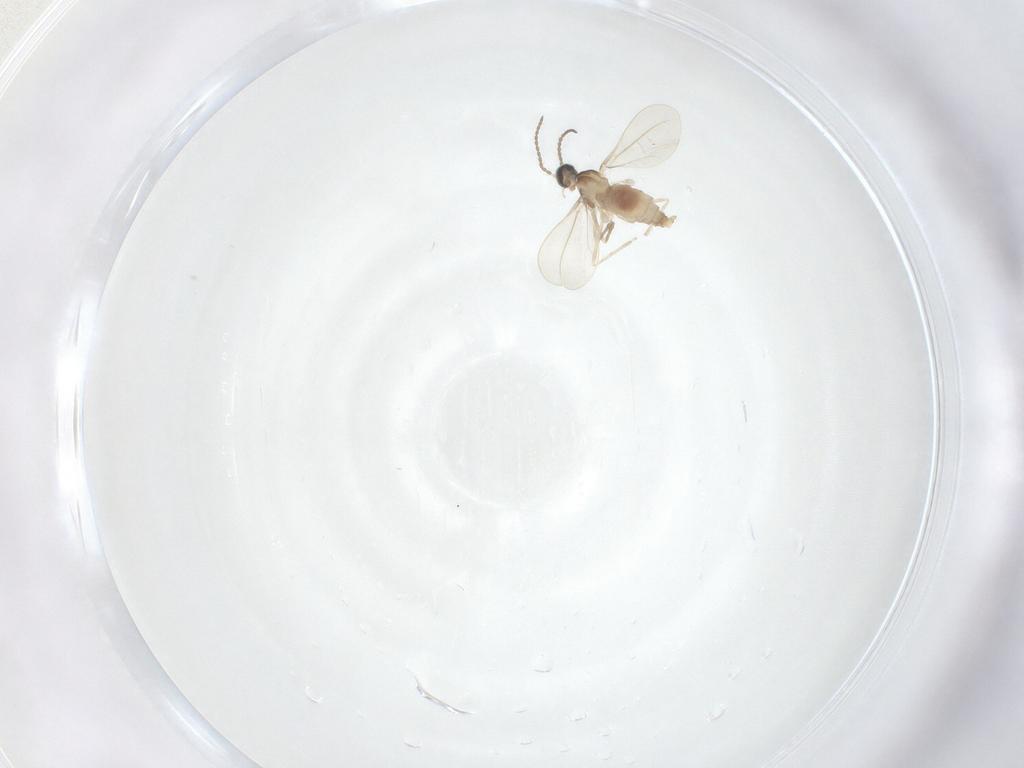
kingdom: Animalia
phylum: Arthropoda
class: Insecta
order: Diptera
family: Cecidomyiidae
